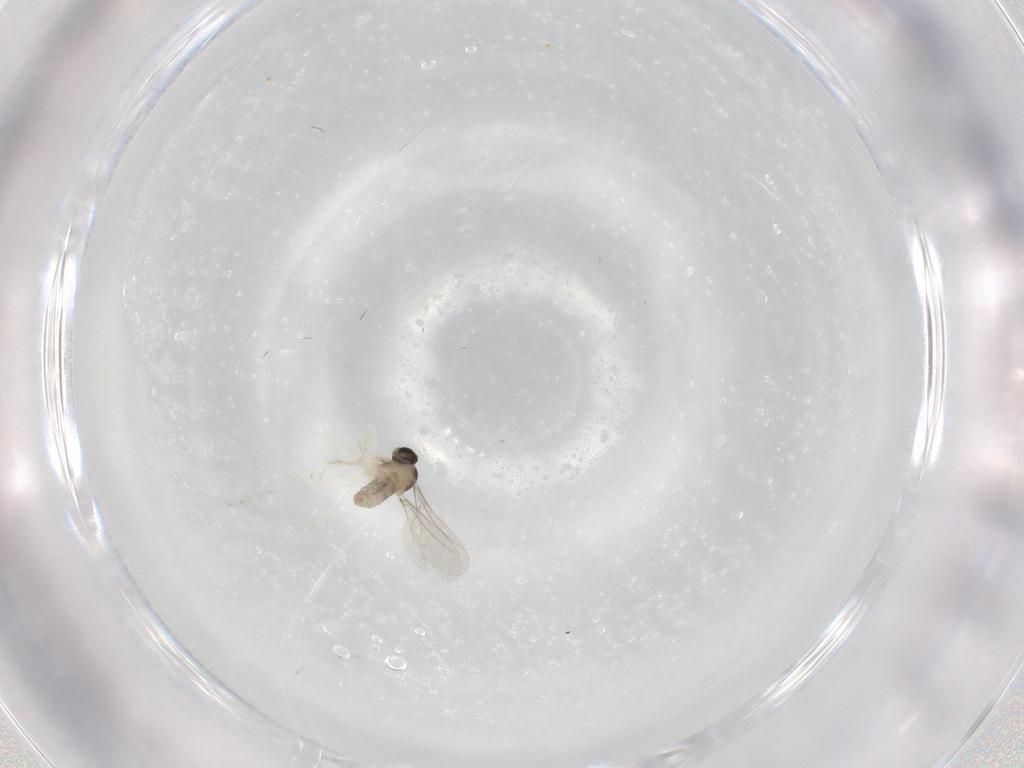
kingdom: Animalia
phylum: Arthropoda
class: Insecta
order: Diptera
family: Cecidomyiidae
